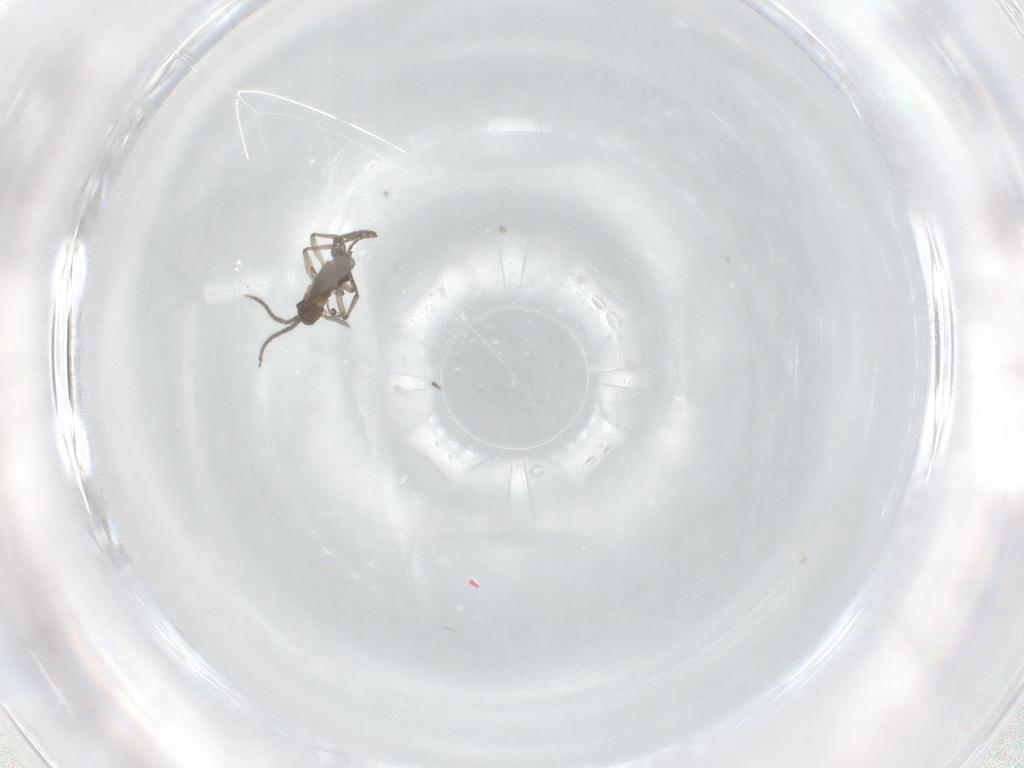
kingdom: Animalia
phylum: Arthropoda
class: Insecta
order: Diptera
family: Sciaridae
